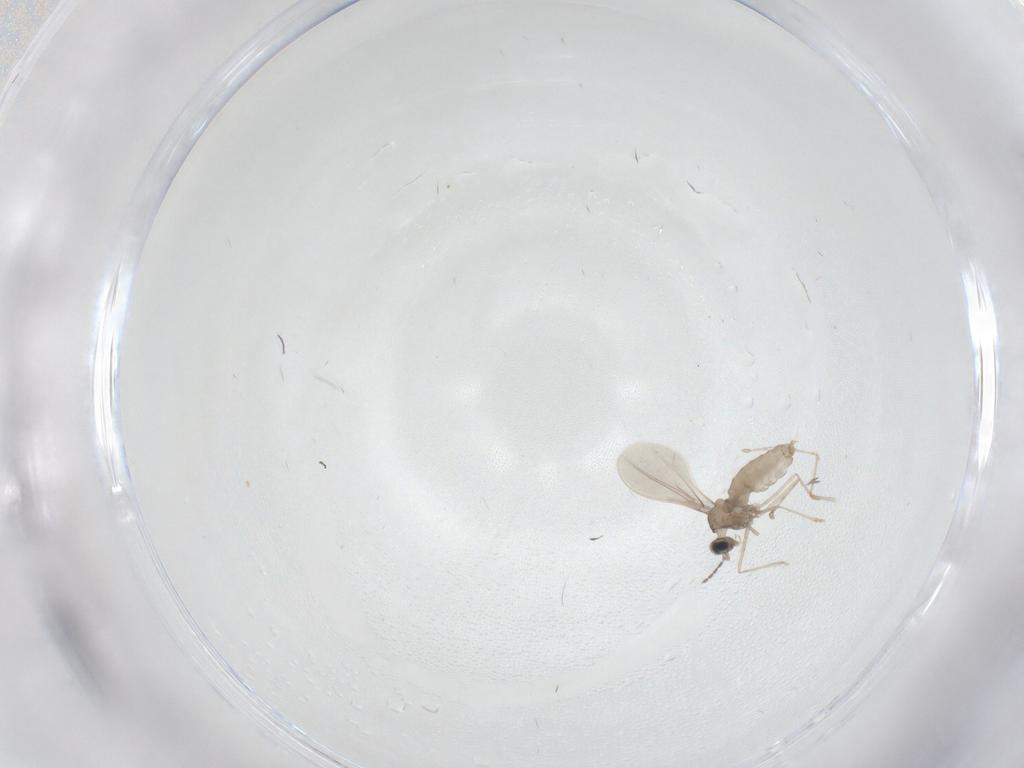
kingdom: Animalia
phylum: Arthropoda
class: Insecta
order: Diptera
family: Cecidomyiidae
